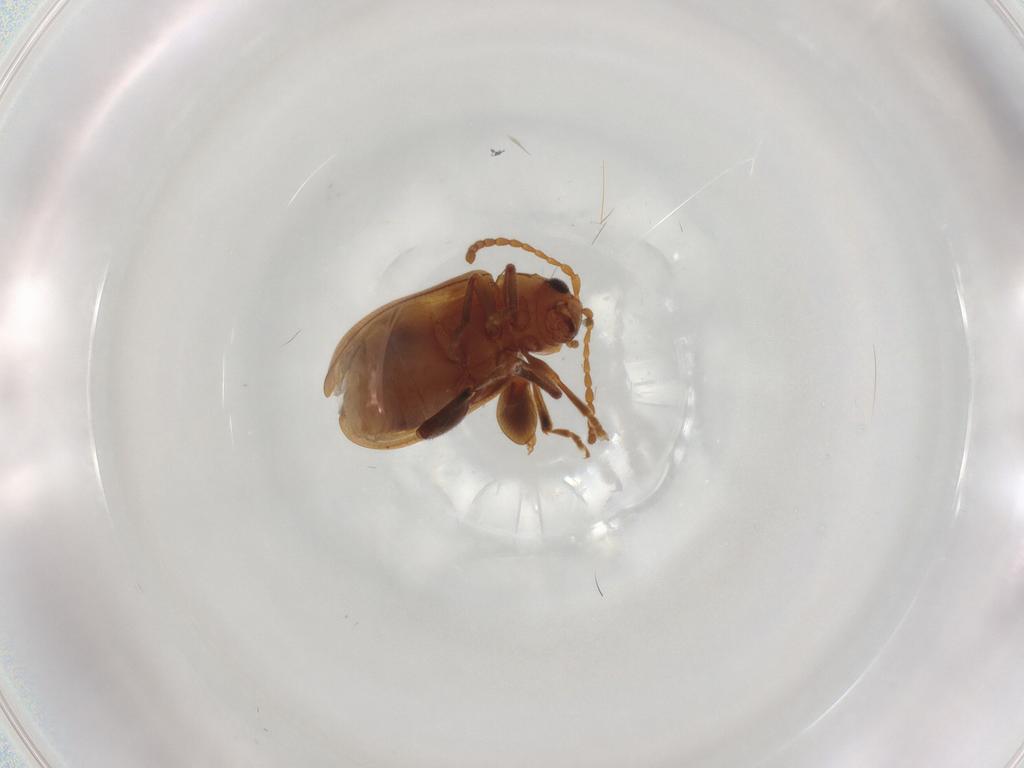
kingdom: Animalia
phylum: Arthropoda
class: Insecta
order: Coleoptera
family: Chrysomelidae
